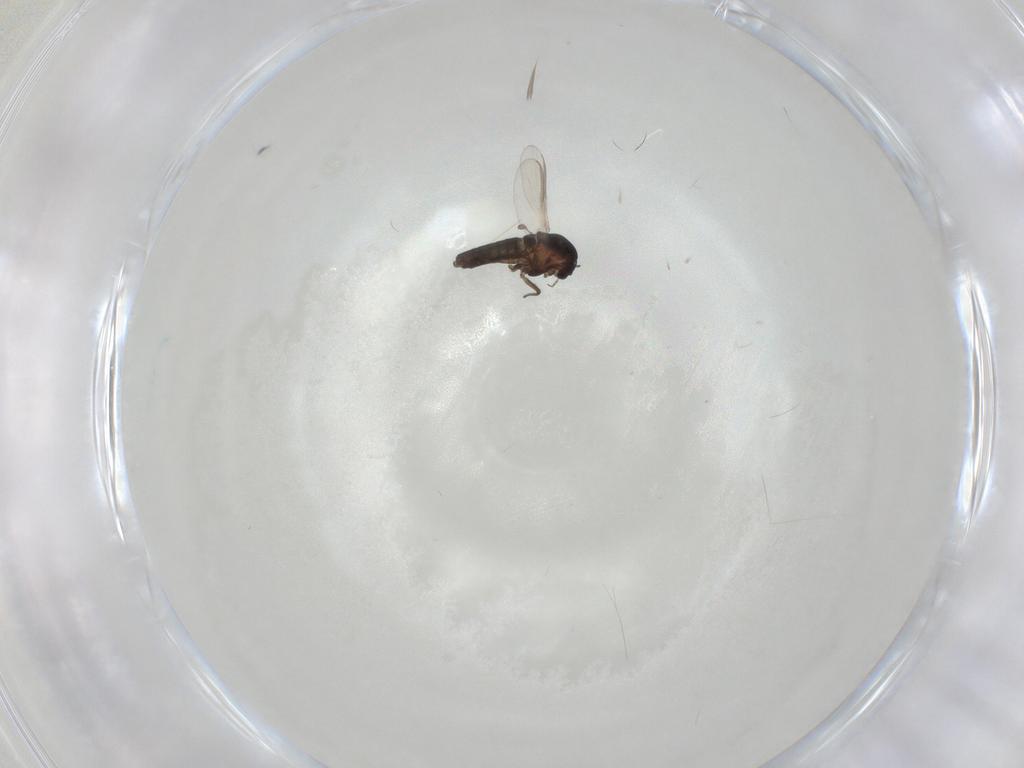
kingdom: Animalia
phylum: Arthropoda
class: Insecta
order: Diptera
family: Ceratopogonidae
